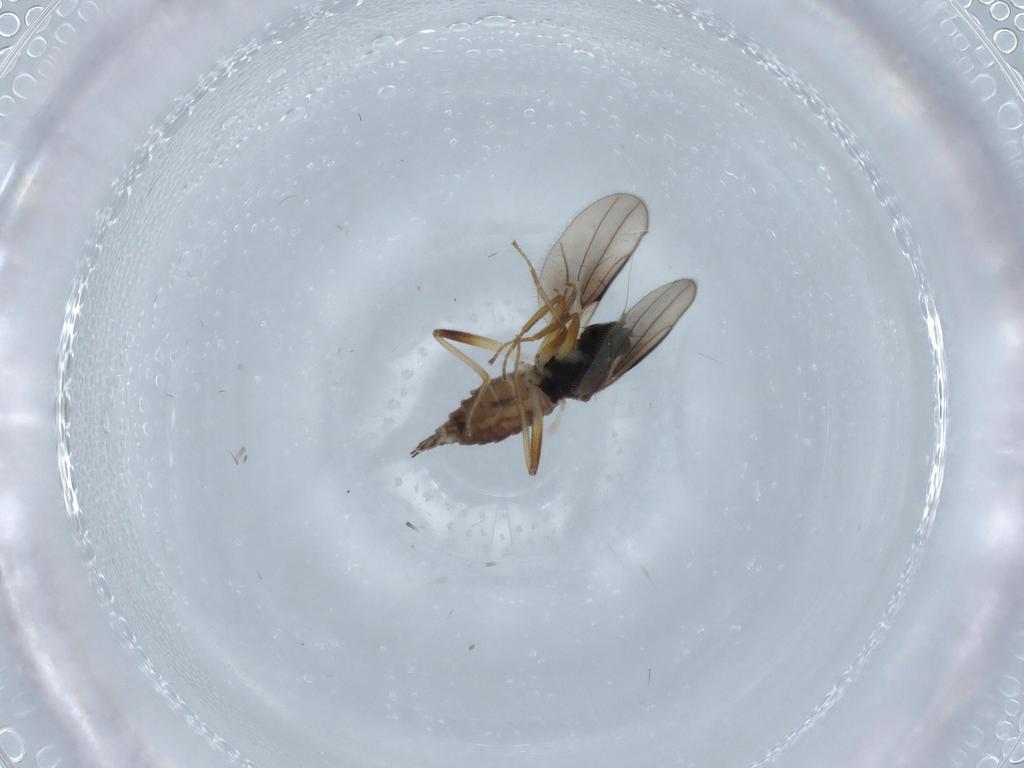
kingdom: Animalia
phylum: Arthropoda
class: Insecta
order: Diptera
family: Hybotidae
